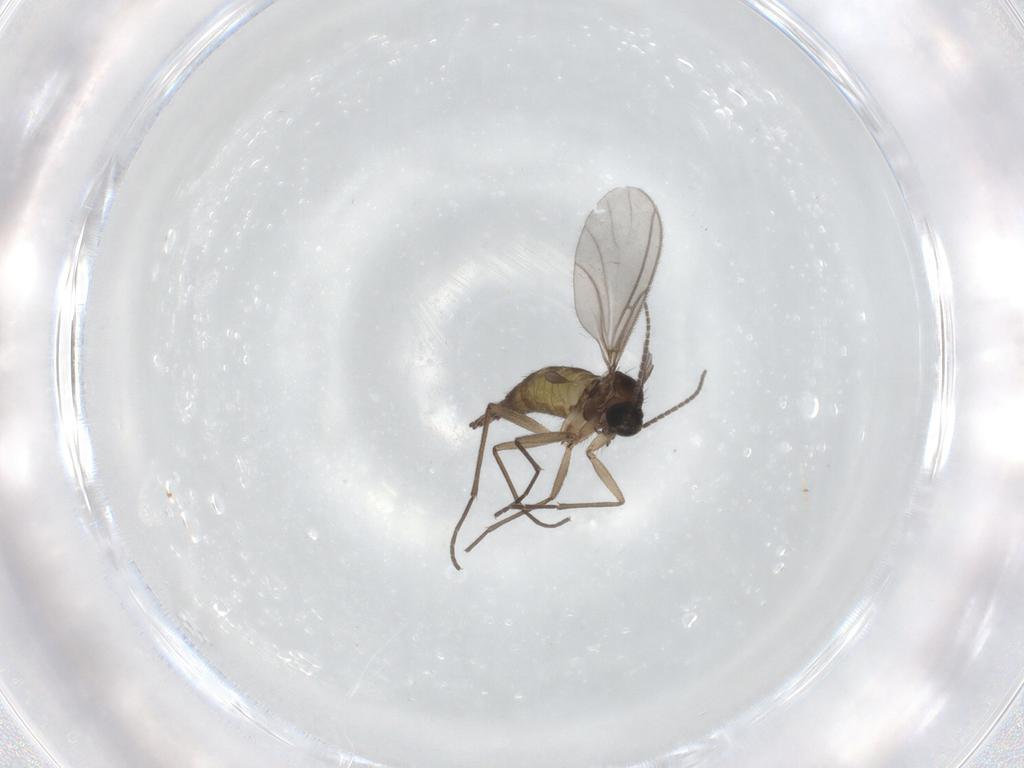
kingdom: Animalia
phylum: Arthropoda
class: Insecta
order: Diptera
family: Sciaridae
